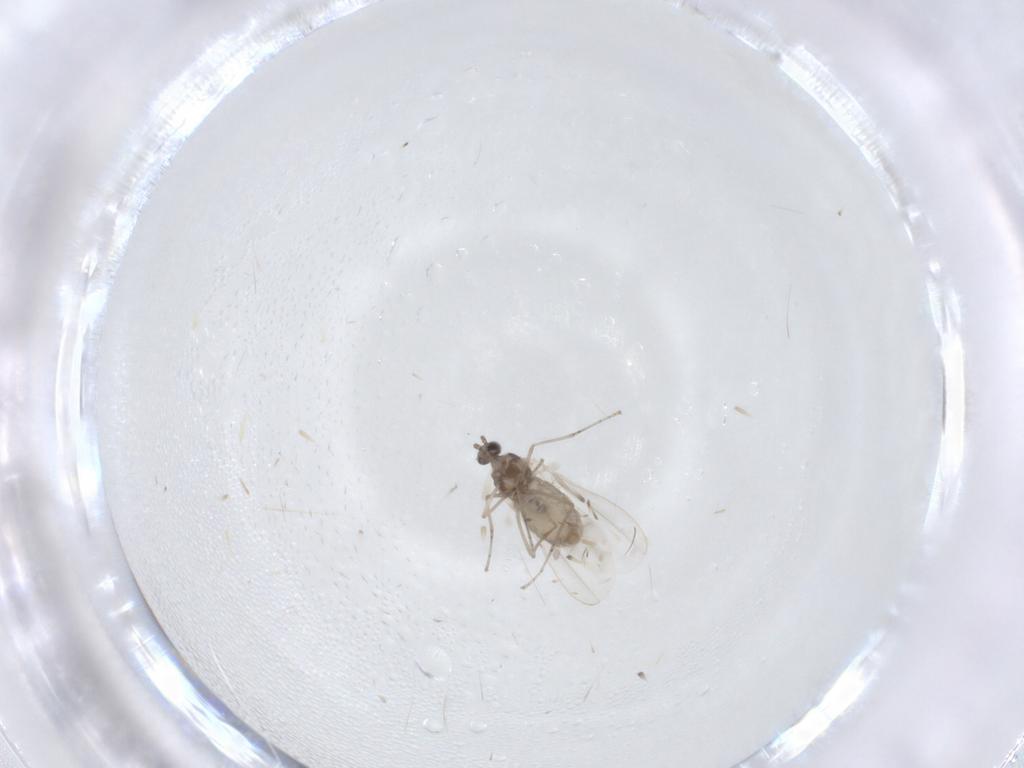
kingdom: Animalia
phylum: Arthropoda
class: Insecta
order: Diptera
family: Cecidomyiidae
